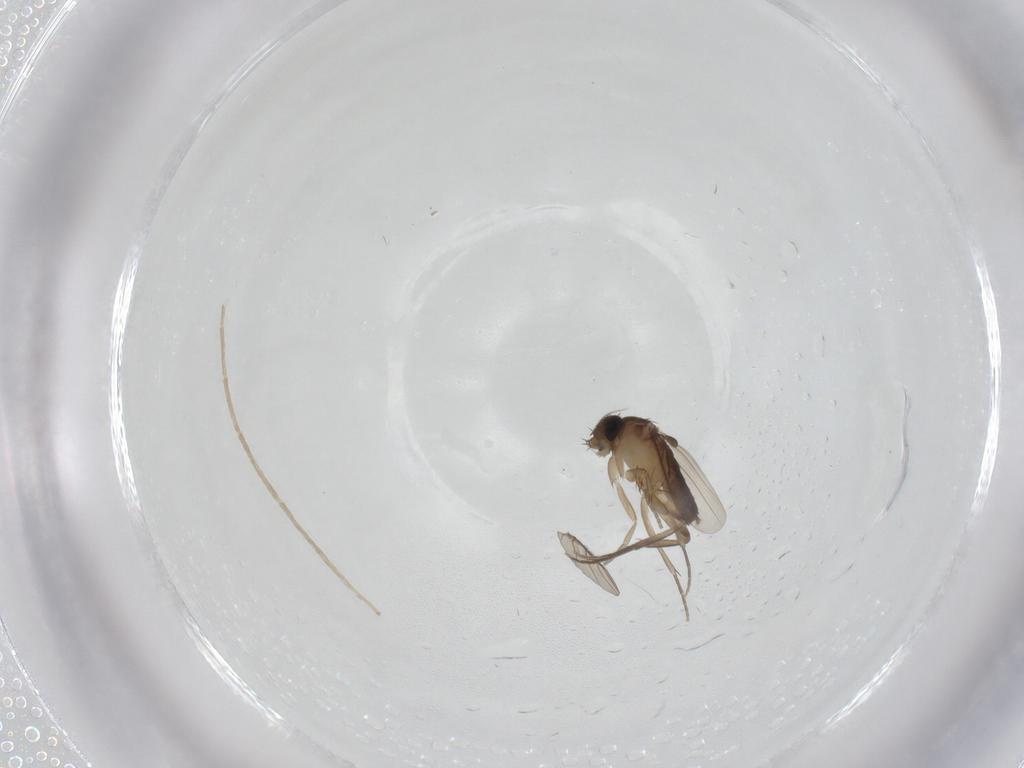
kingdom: Animalia
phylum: Arthropoda
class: Insecta
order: Diptera
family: Chironomidae
